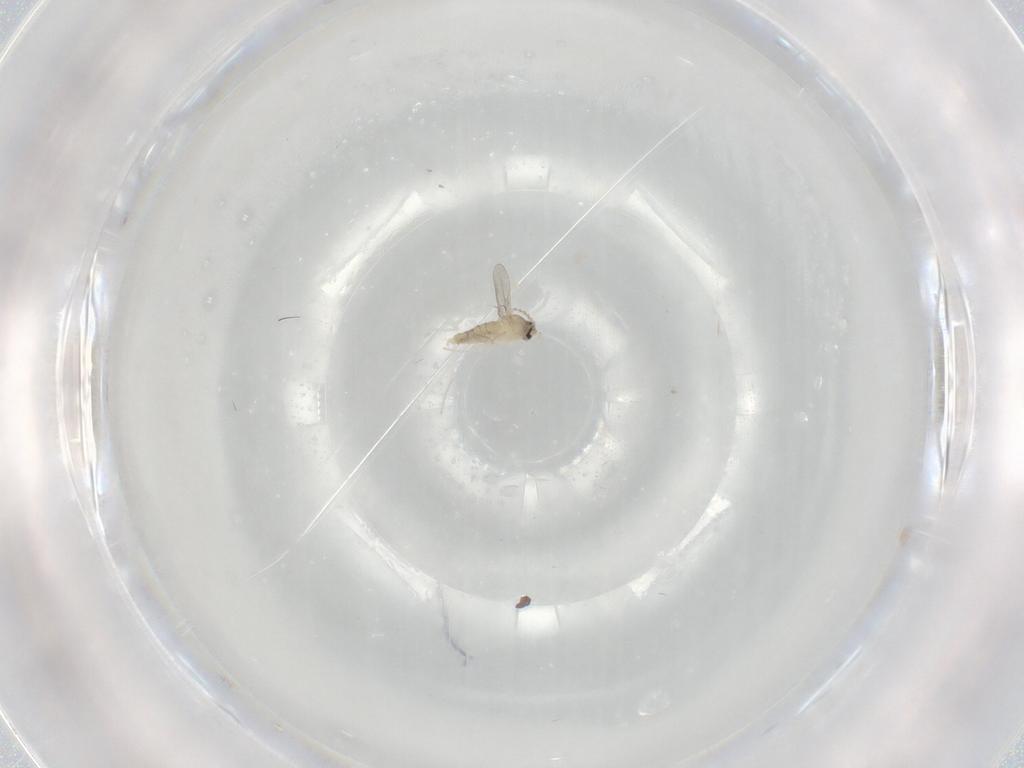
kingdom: Animalia
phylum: Arthropoda
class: Insecta
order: Diptera
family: Cecidomyiidae
